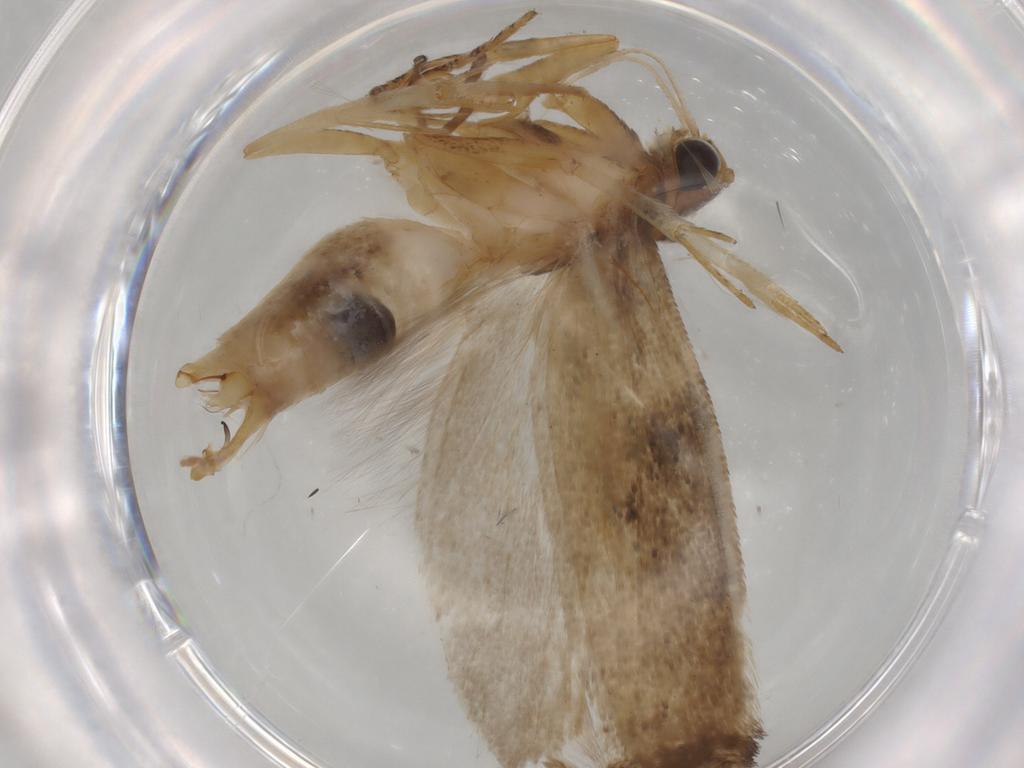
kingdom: Animalia
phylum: Arthropoda
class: Insecta
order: Lepidoptera
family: Gelechiidae
